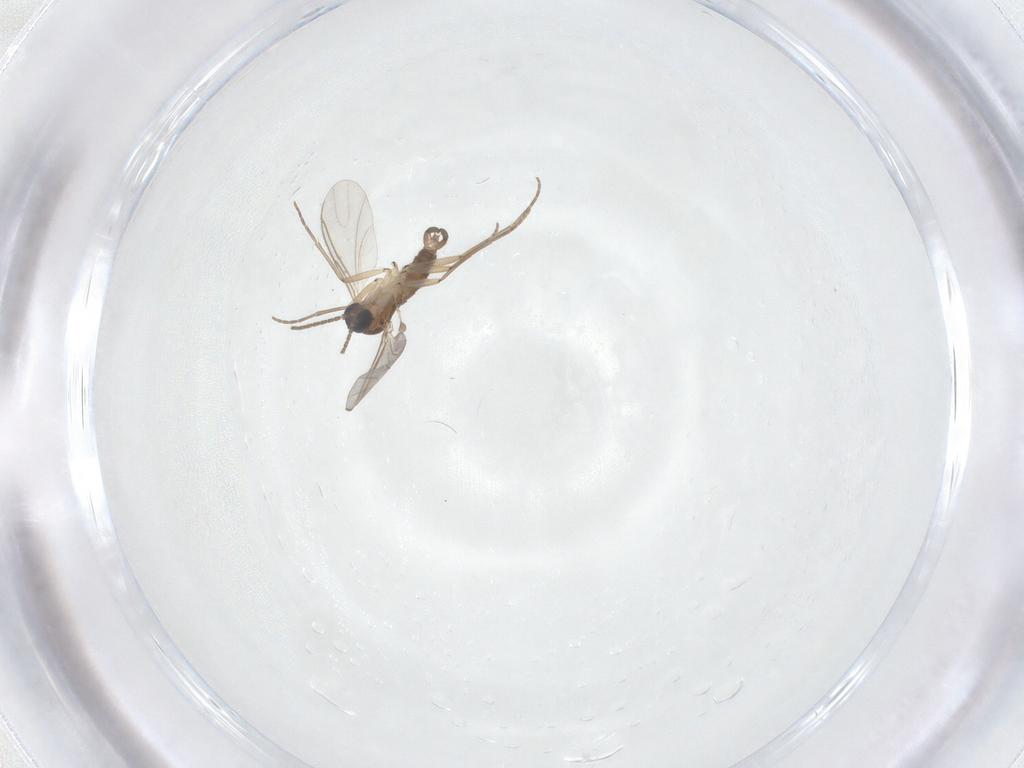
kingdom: Animalia
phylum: Arthropoda
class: Insecta
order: Diptera
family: Sciaridae
